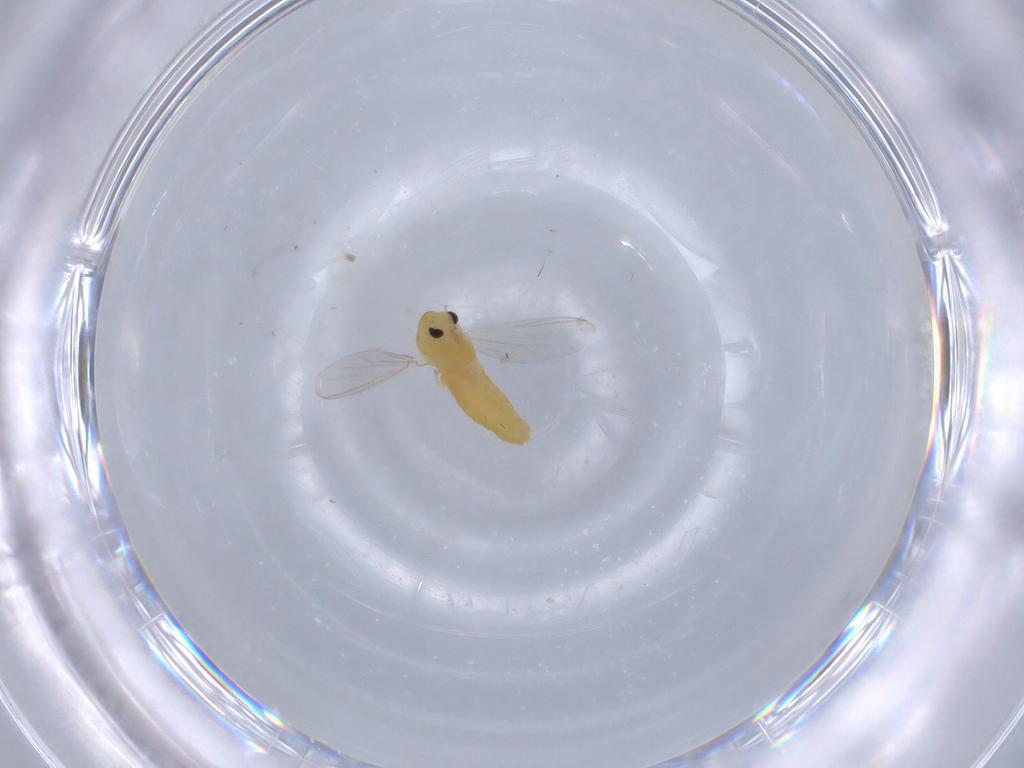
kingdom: Animalia
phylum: Arthropoda
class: Insecta
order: Diptera
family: Chironomidae
